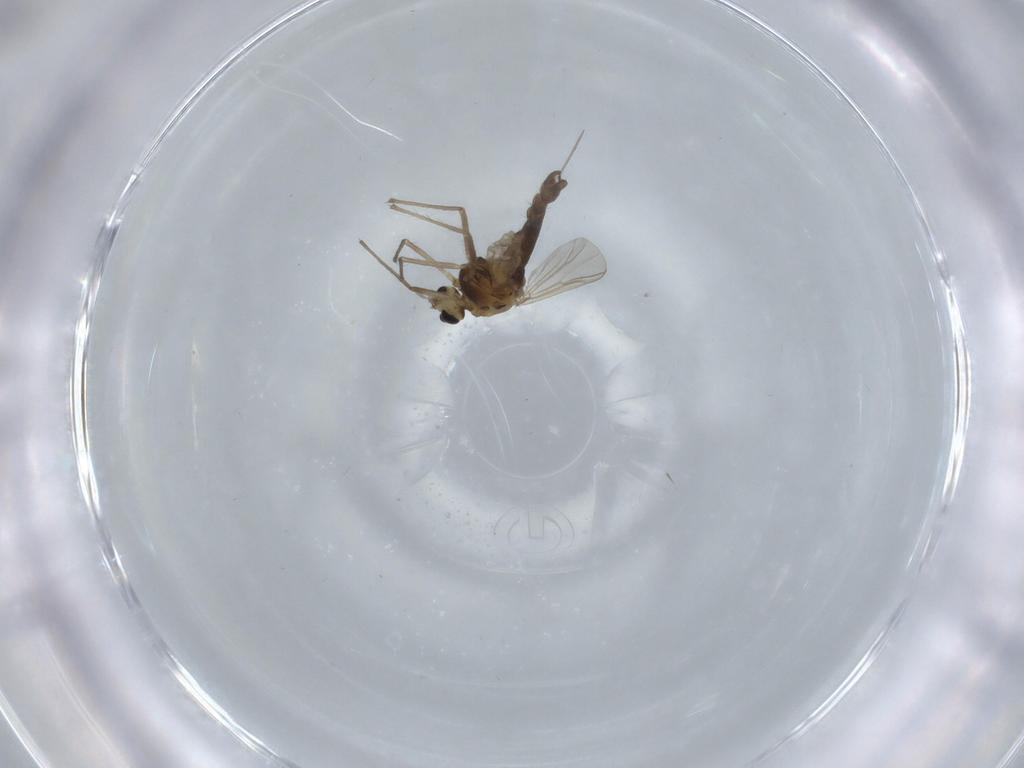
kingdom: Animalia
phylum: Arthropoda
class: Insecta
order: Diptera
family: Chironomidae
